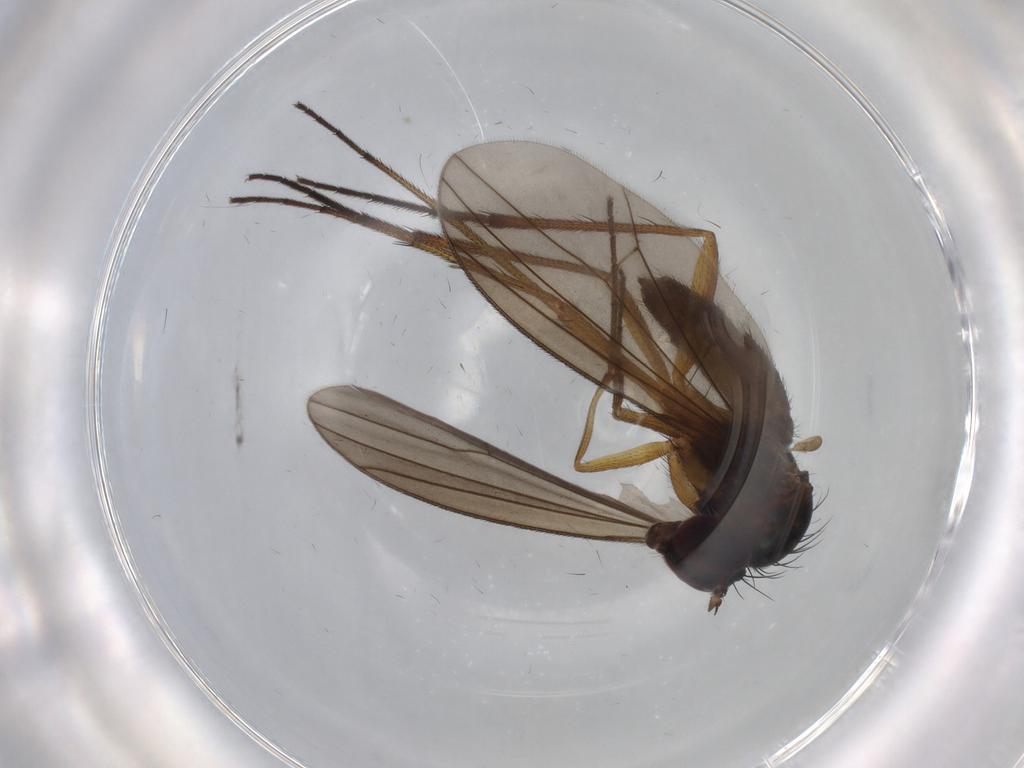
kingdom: Animalia
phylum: Arthropoda
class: Insecta
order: Diptera
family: Dolichopodidae
